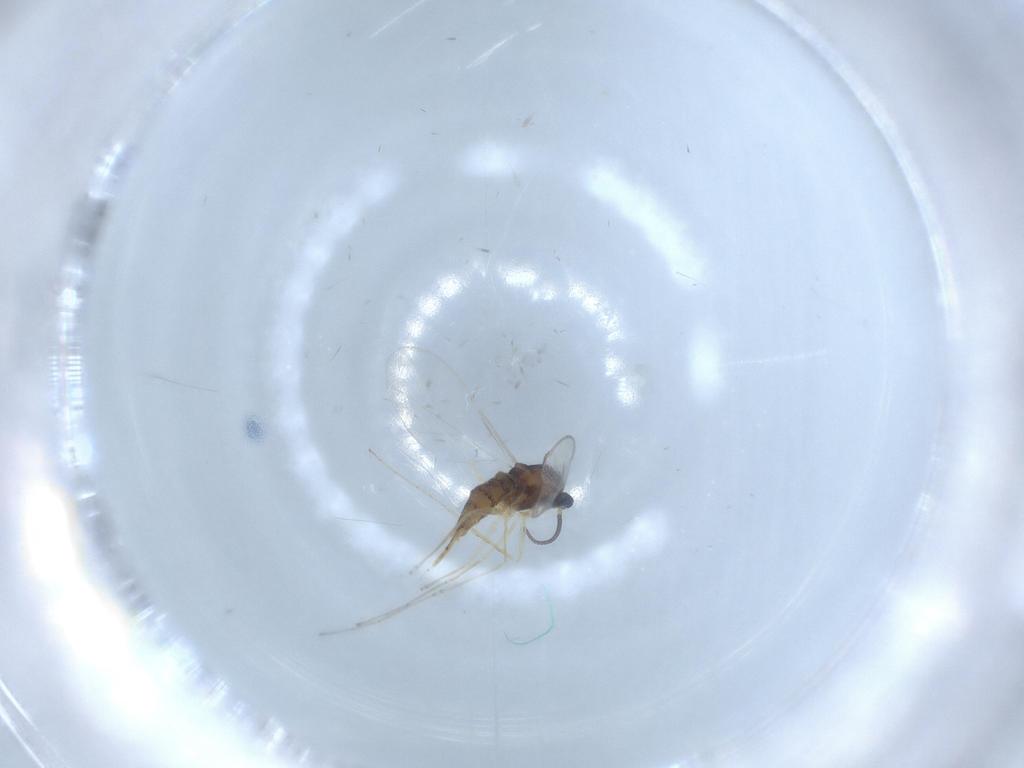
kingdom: Animalia
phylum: Arthropoda
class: Insecta
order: Diptera
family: Cecidomyiidae
